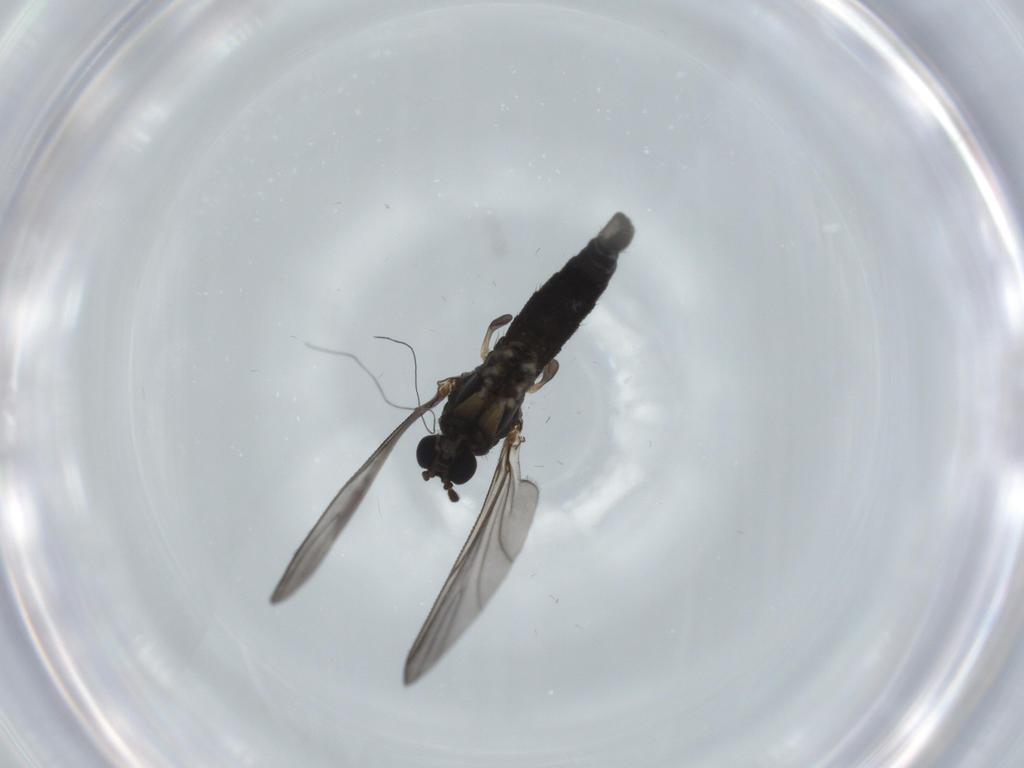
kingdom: Animalia
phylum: Arthropoda
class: Insecta
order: Diptera
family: Sciaridae
